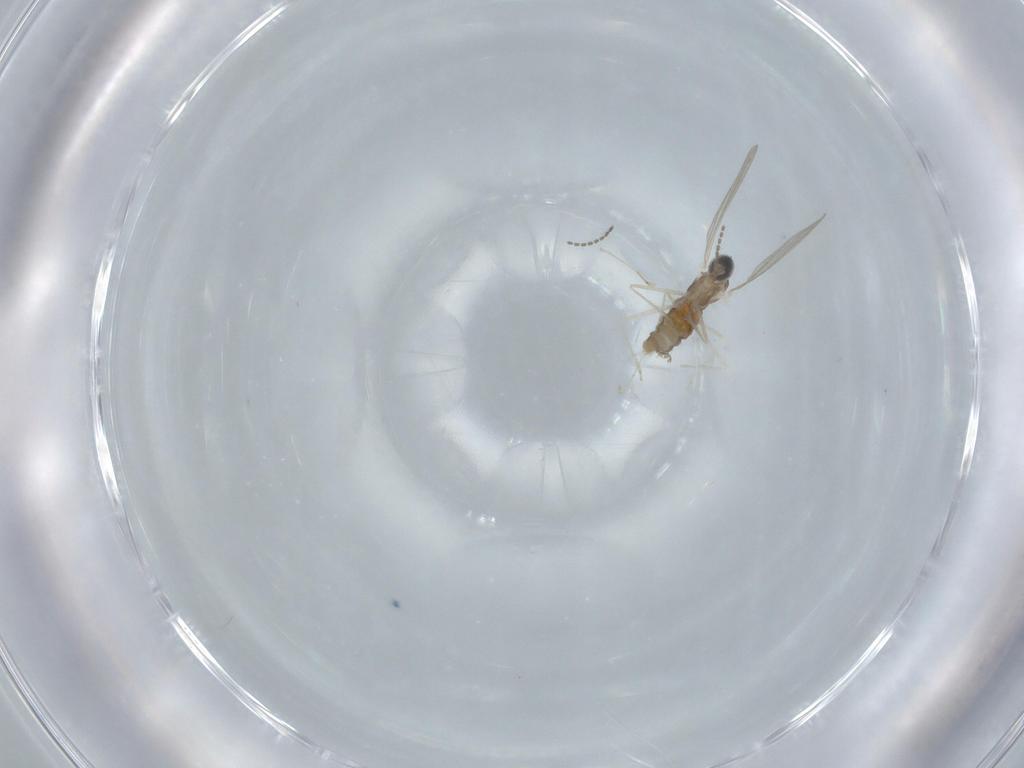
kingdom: Animalia
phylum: Arthropoda
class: Insecta
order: Diptera
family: Cecidomyiidae
